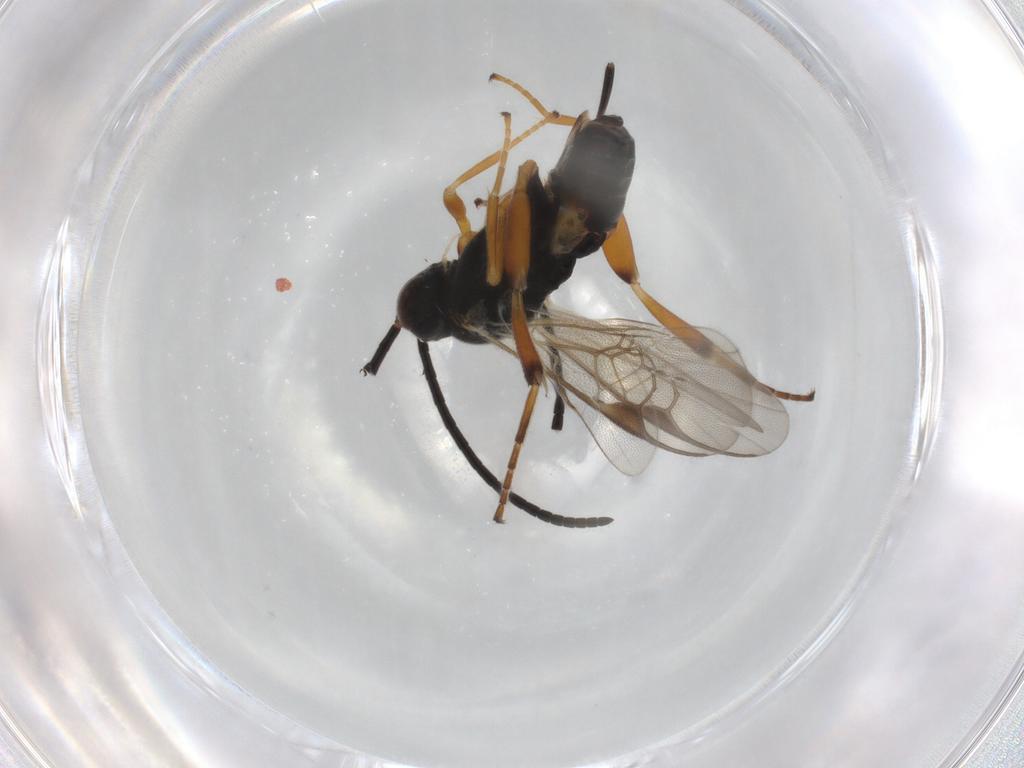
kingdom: Animalia
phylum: Arthropoda
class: Insecta
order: Hymenoptera
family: Braconidae
